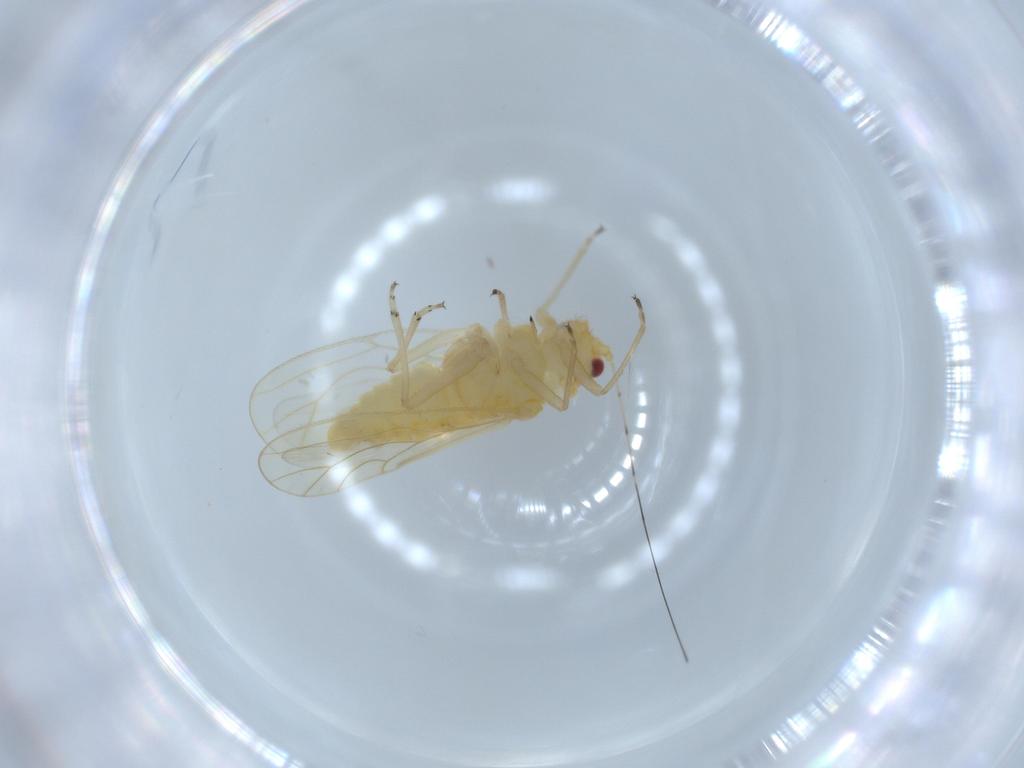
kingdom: Animalia
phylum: Arthropoda
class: Insecta
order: Hemiptera
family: Psyllidae
